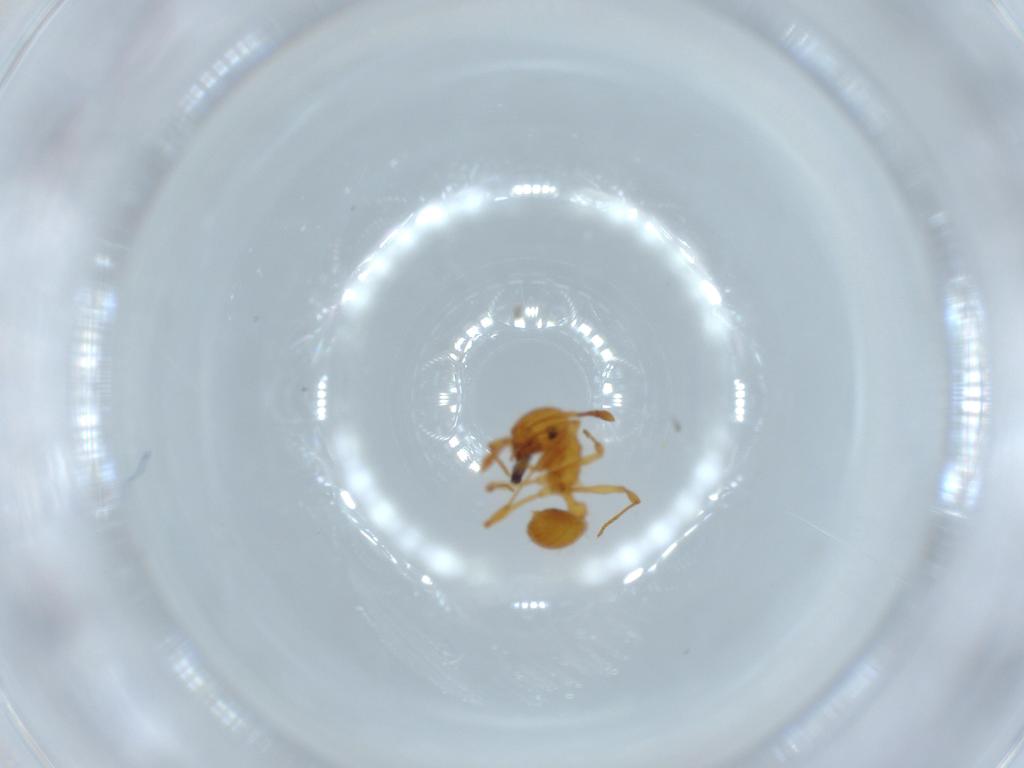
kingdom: Animalia
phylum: Arthropoda
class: Insecta
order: Hymenoptera
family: Formicidae
